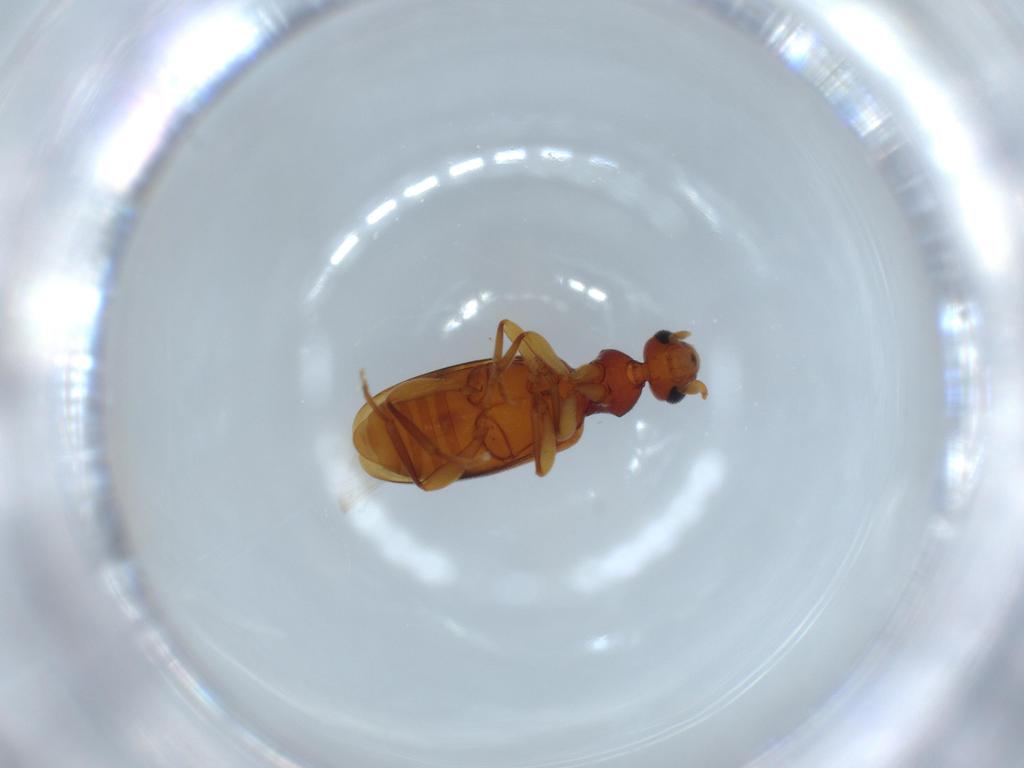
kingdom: Animalia
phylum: Arthropoda
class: Insecta
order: Coleoptera
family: Anthicidae
